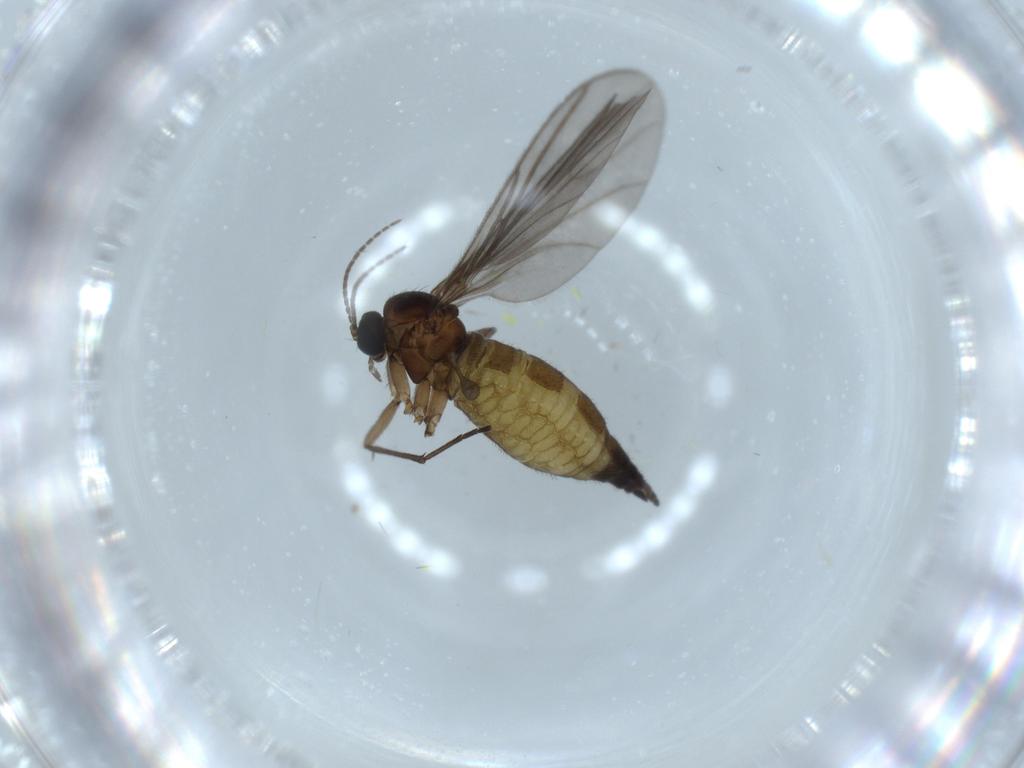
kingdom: Animalia
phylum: Arthropoda
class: Insecta
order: Diptera
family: Sciaridae
